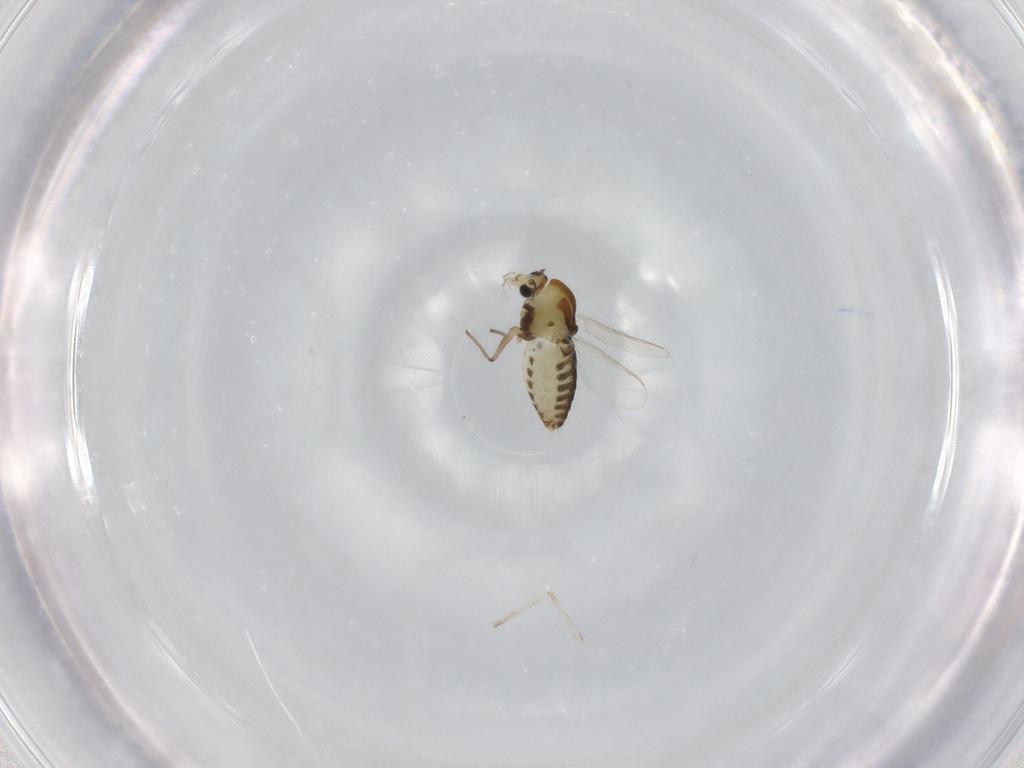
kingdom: Animalia
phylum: Arthropoda
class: Insecta
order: Diptera
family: Chironomidae
